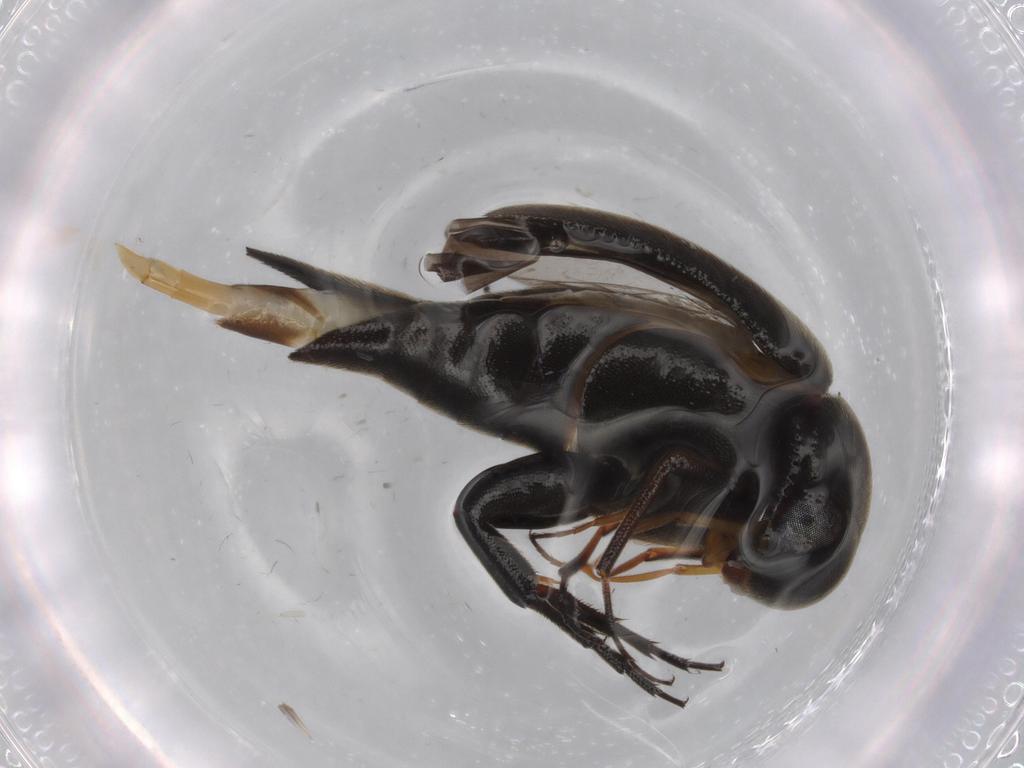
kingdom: Animalia
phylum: Arthropoda
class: Insecta
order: Coleoptera
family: Mordellidae
